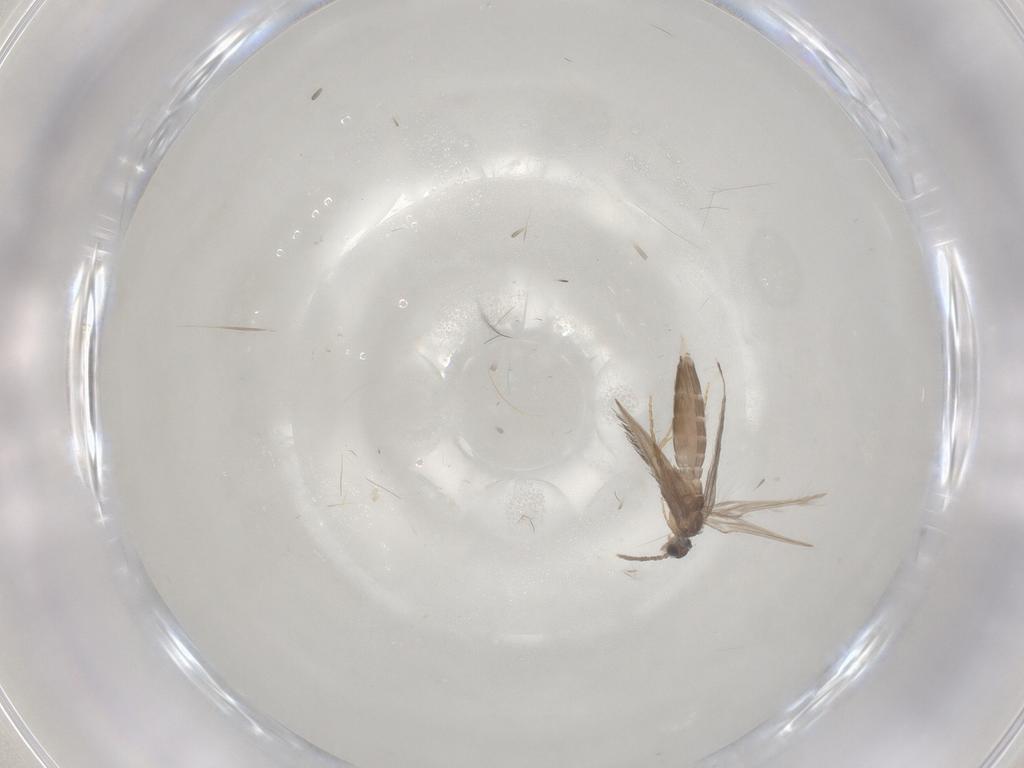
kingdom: Animalia
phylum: Arthropoda
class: Insecta
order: Trichoptera
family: Hydroptilidae
